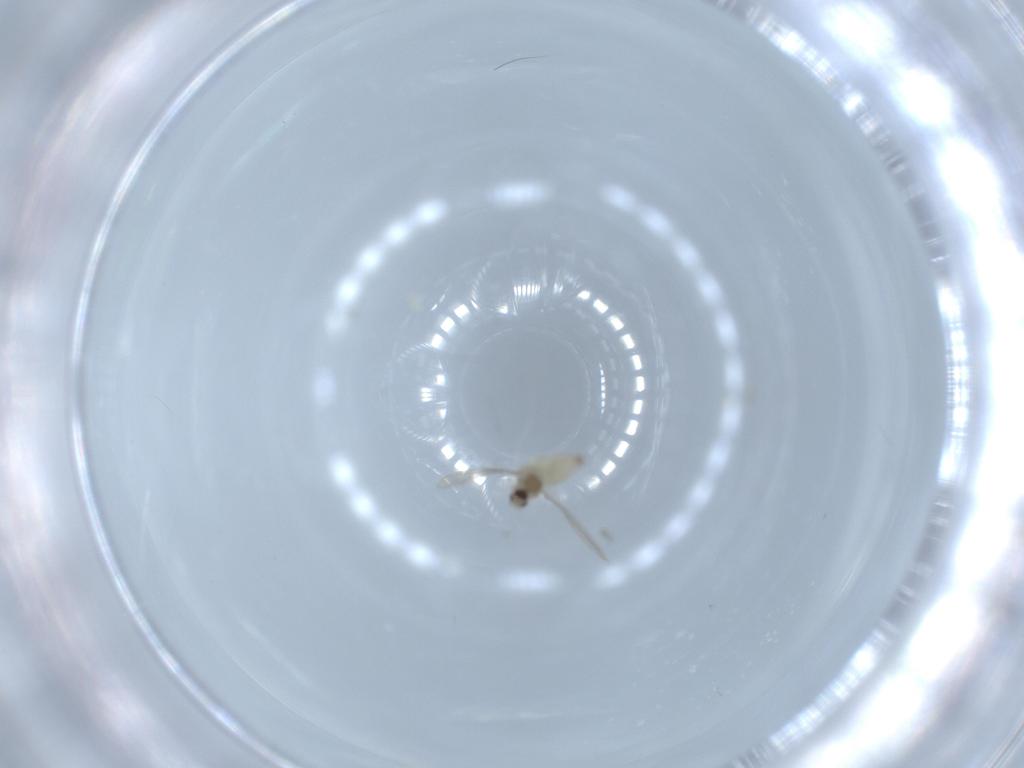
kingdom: Animalia
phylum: Arthropoda
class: Insecta
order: Diptera
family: Cecidomyiidae
